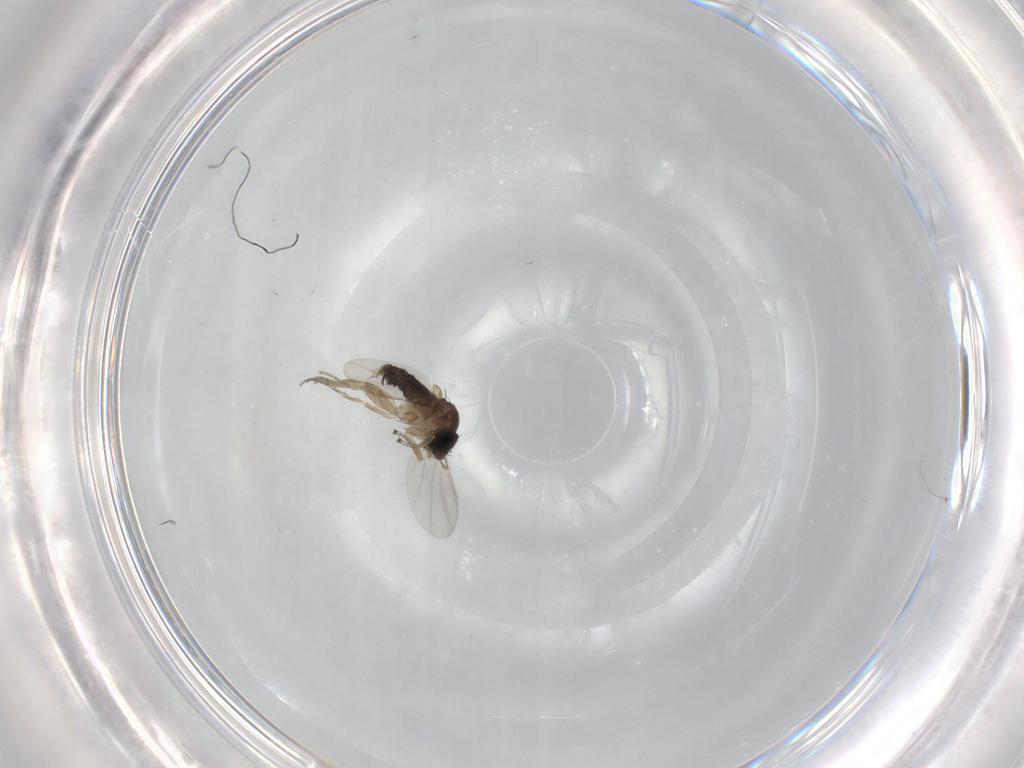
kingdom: Animalia
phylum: Arthropoda
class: Insecta
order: Diptera
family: Phoridae
